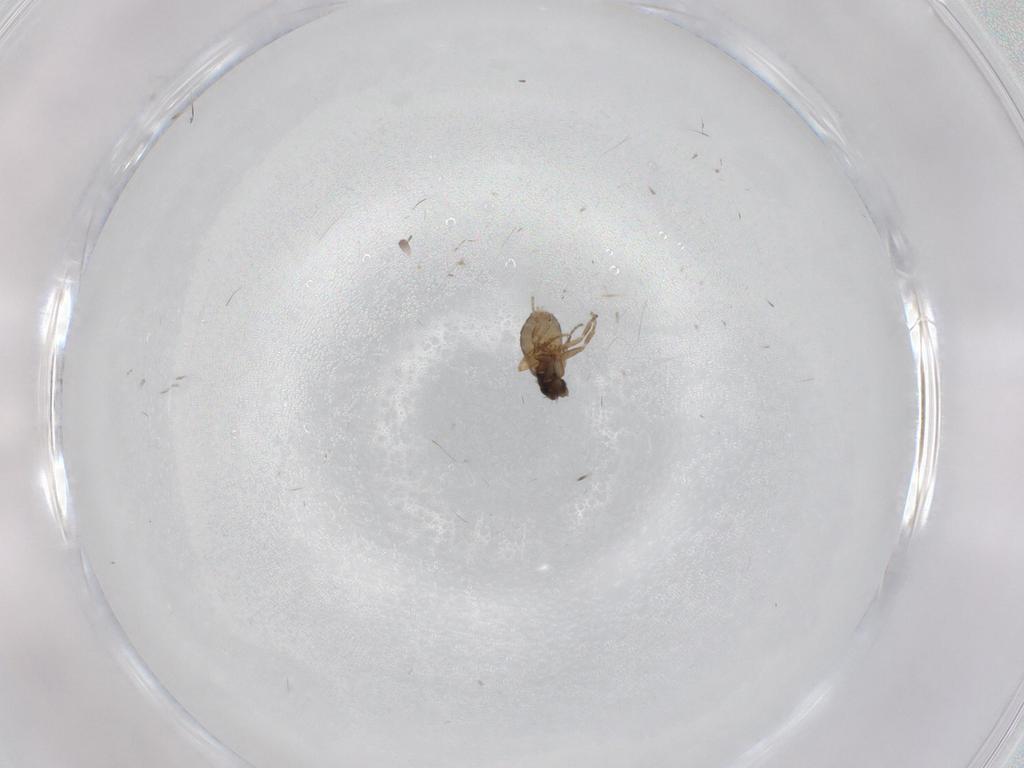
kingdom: Animalia
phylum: Arthropoda
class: Insecta
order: Diptera
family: Phoridae
